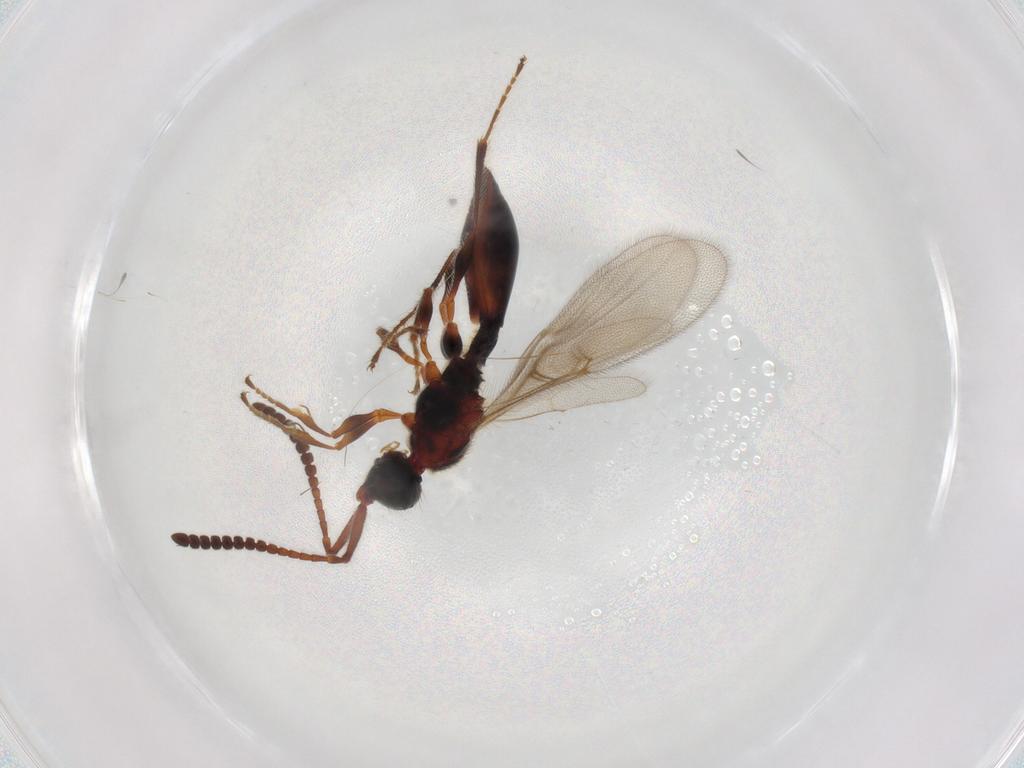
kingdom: Animalia
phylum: Arthropoda
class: Insecta
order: Hymenoptera
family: Diapriidae
